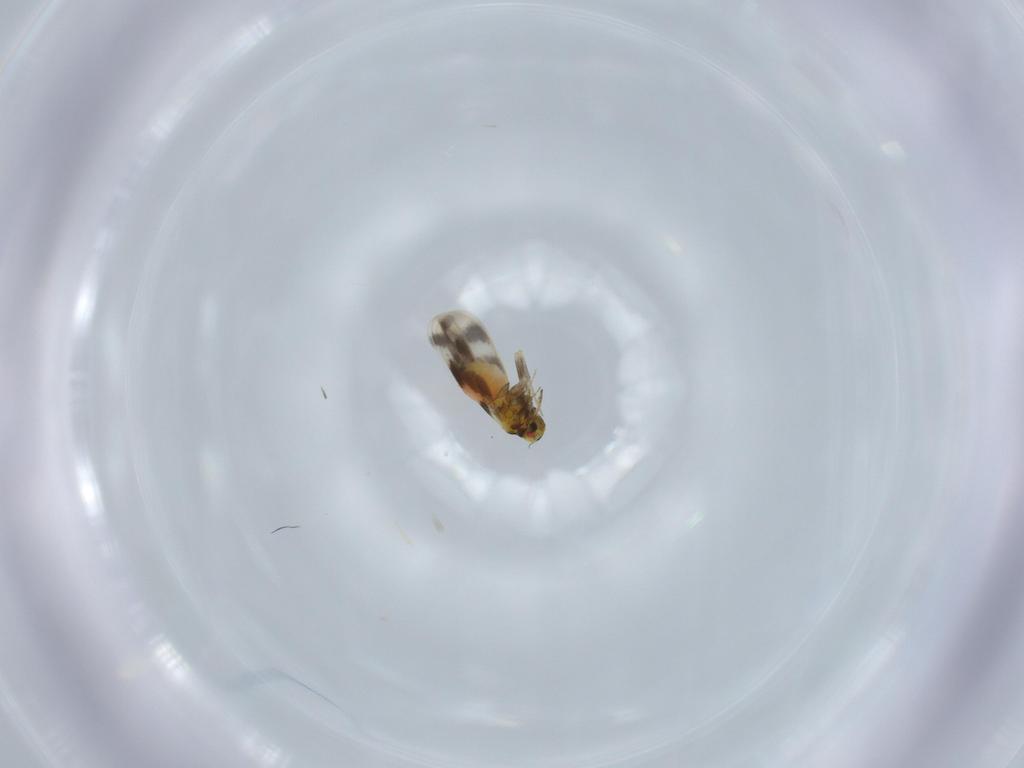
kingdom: Animalia
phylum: Arthropoda
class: Insecta
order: Hemiptera
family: Aleyrodidae
